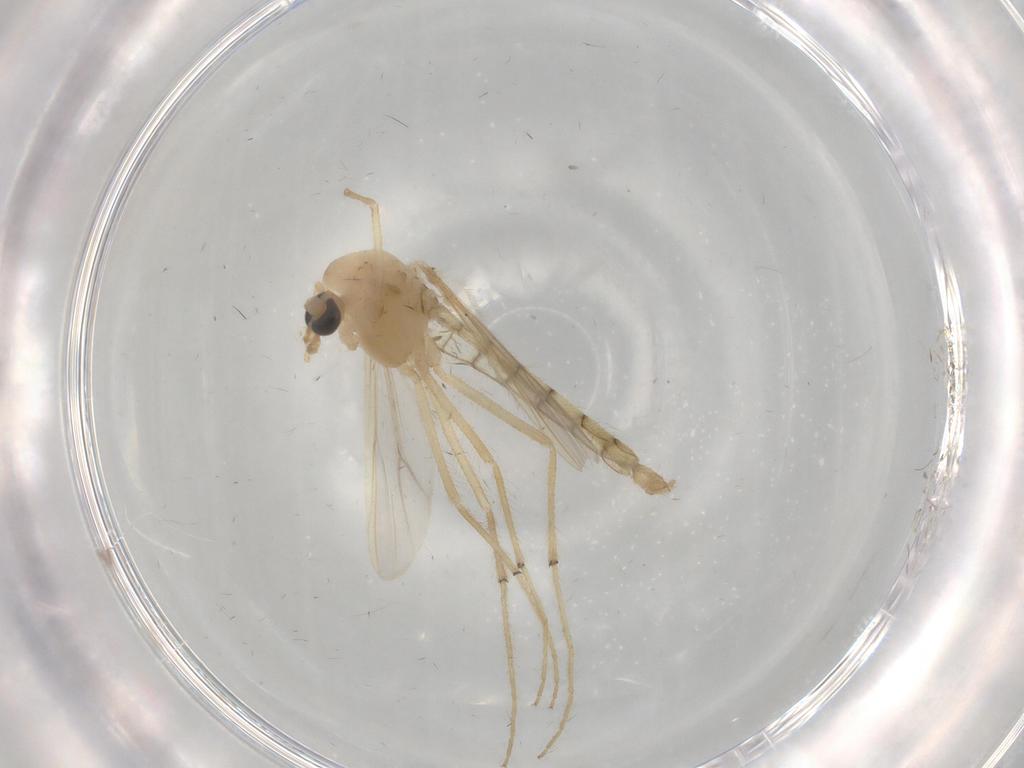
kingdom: Animalia
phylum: Arthropoda
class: Insecta
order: Diptera
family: Chironomidae
